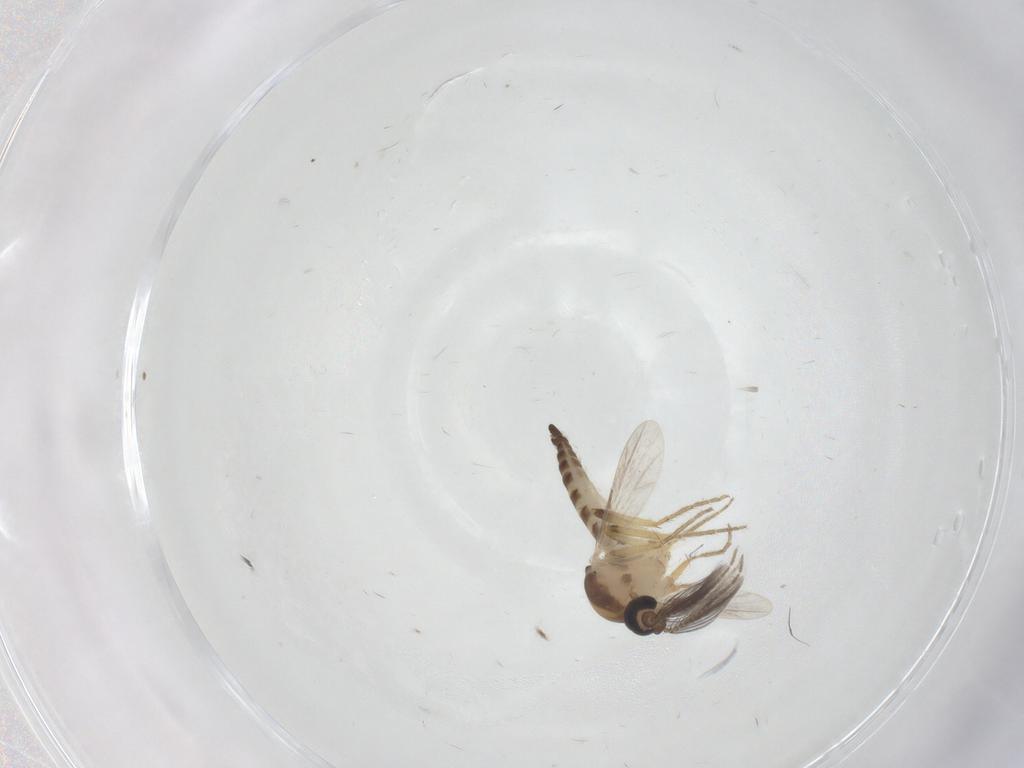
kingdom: Animalia
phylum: Arthropoda
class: Insecta
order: Diptera
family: Ceratopogonidae
